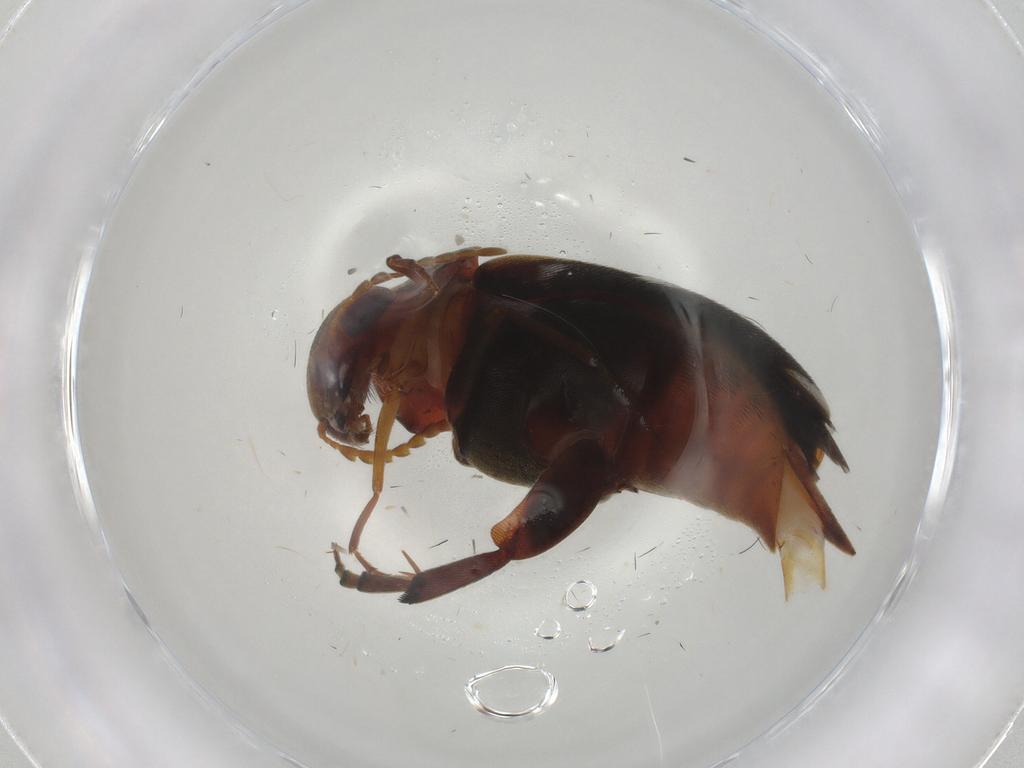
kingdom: Animalia
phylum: Arthropoda
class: Insecta
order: Coleoptera
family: Mordellidae
